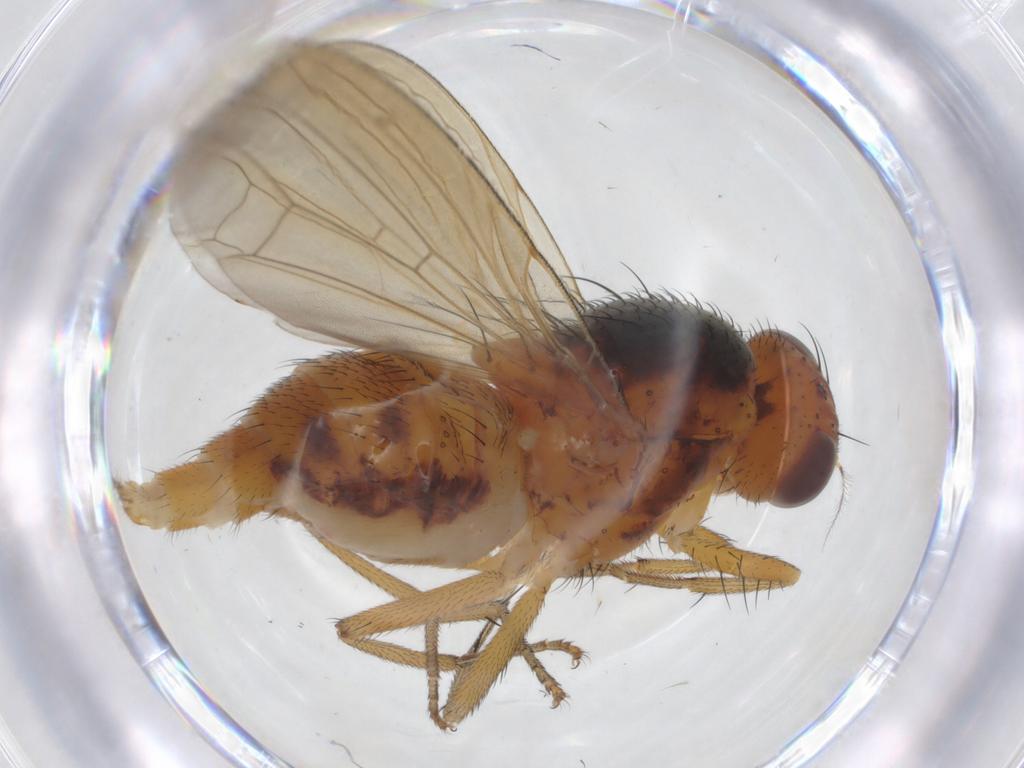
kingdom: Animalia
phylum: Arthropoda
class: Insecta
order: Diptera
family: Cecidomyiidae
